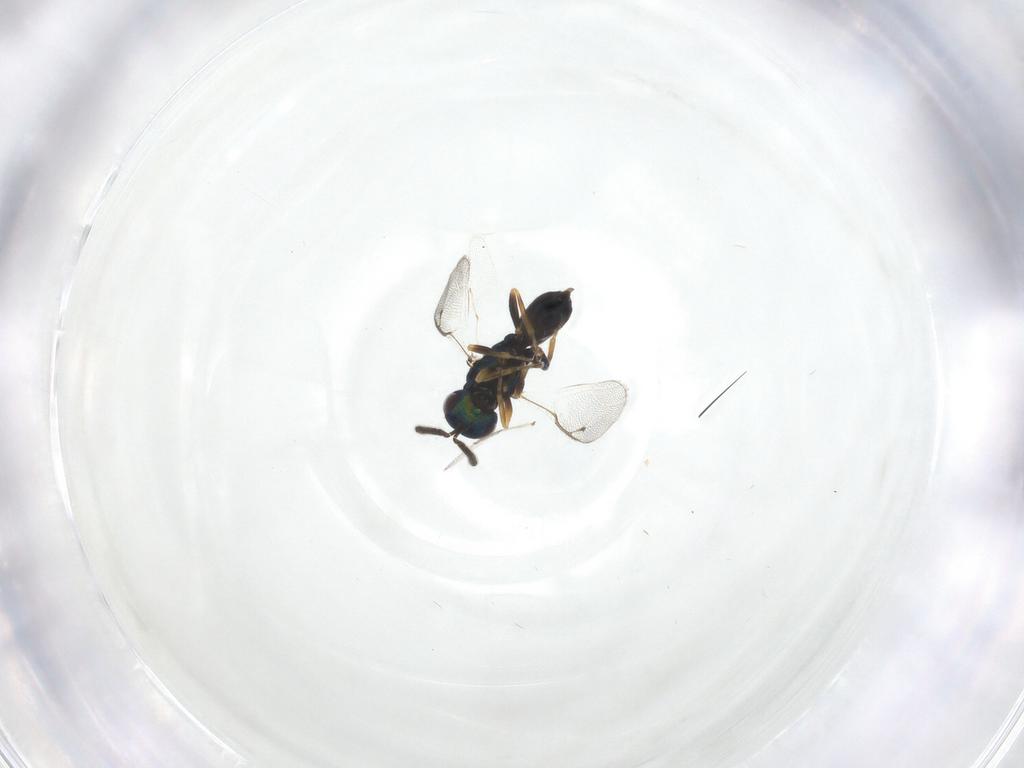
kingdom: Animalia
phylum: Arthropoda
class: Insecta
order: Hymenoptera
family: Pteromalidae
